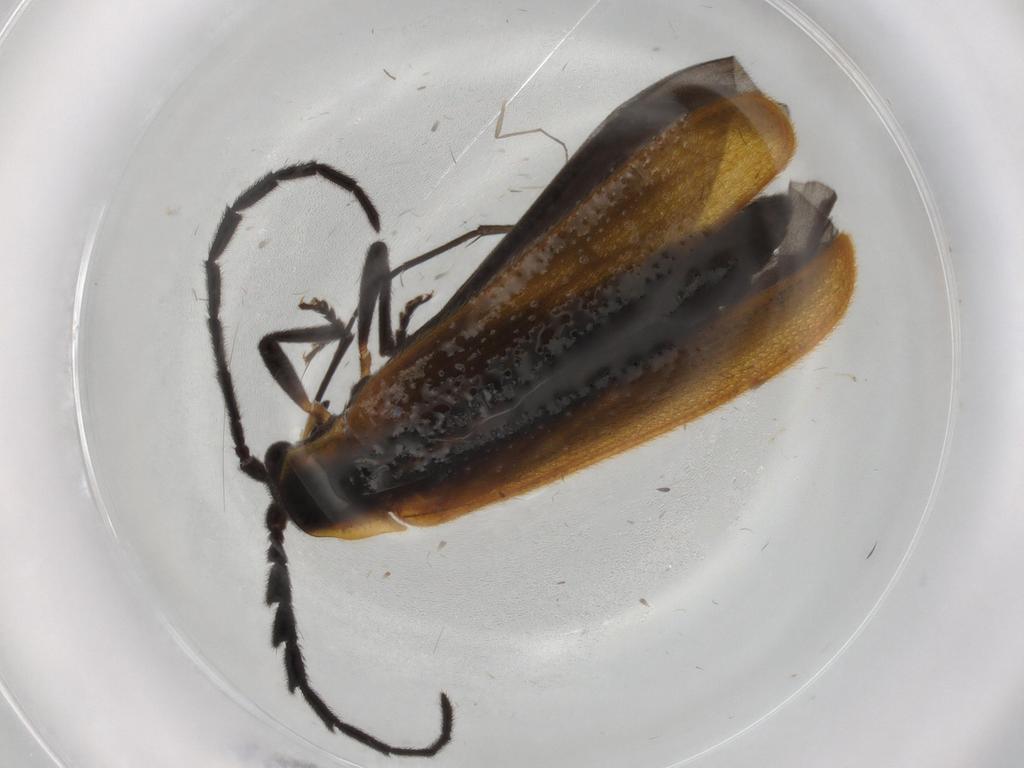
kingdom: Animalia
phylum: Arthropoda
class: Insecta
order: Coleoptera
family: Lycidae
